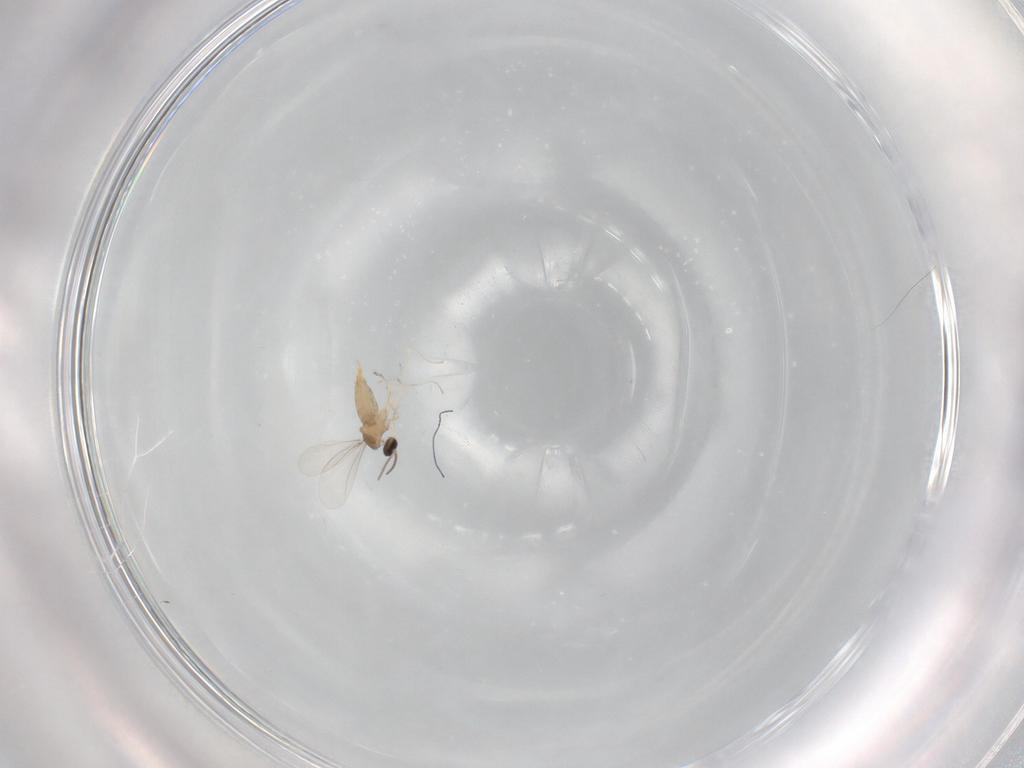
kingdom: Animalia
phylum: Arthropoda
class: Insecta
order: Diptera
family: Cecidomyiidae
